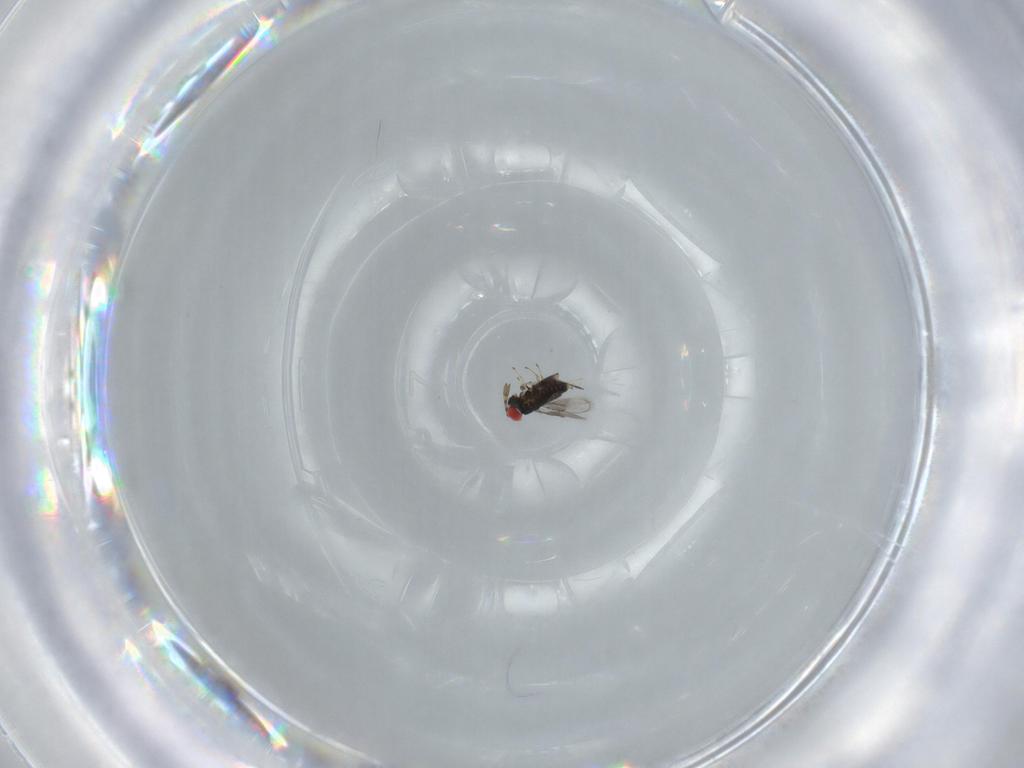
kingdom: Animalia
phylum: Arthropoda
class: Insecta
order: Hymenoptera
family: Azotidae
